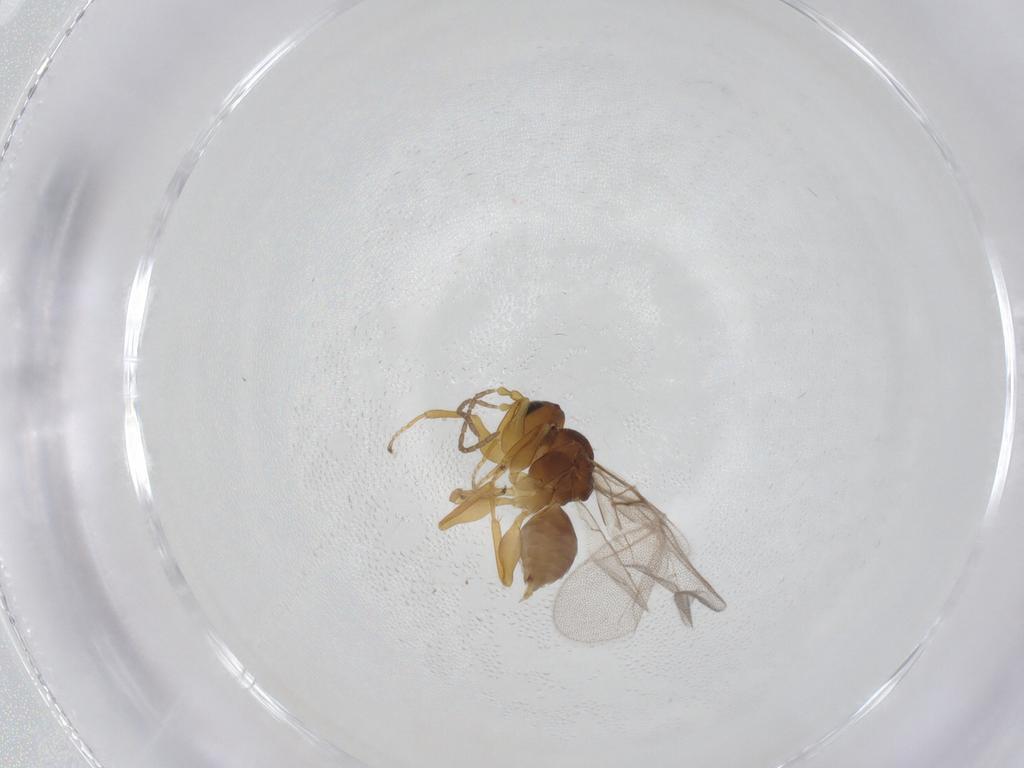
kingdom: Animalia
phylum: Arthropoda
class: Insecta
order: Hymenoptera
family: Cynipidae
